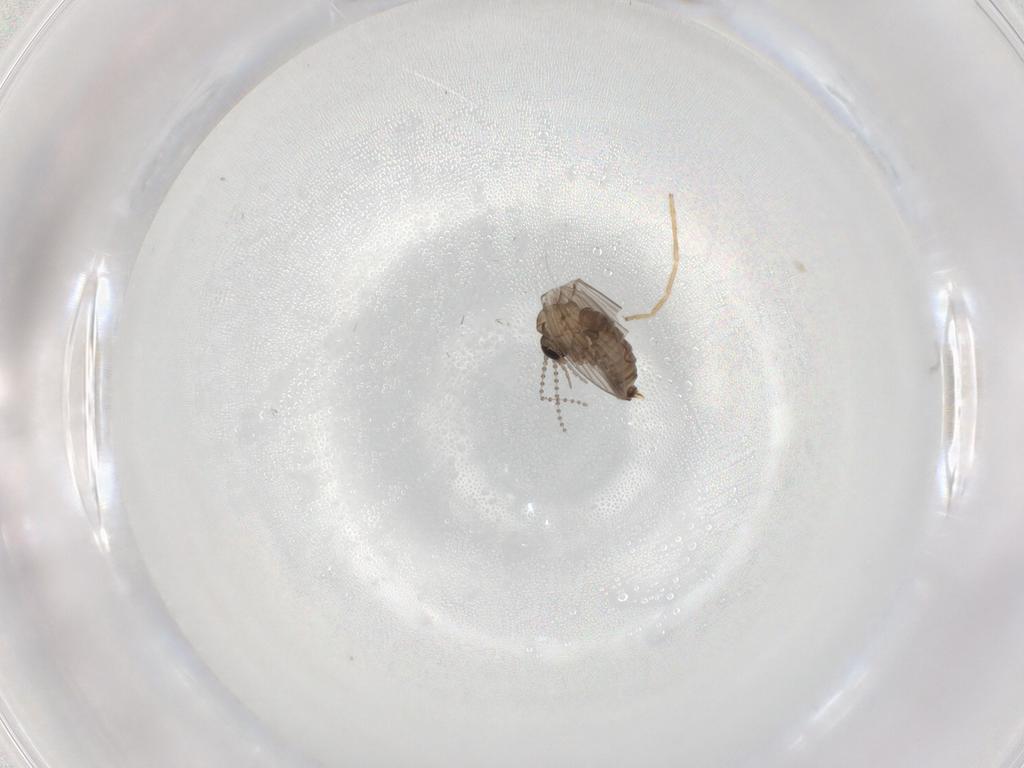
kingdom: Animalia
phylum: Arthropoda
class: Insecta
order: Diptera
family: Psychodidae
